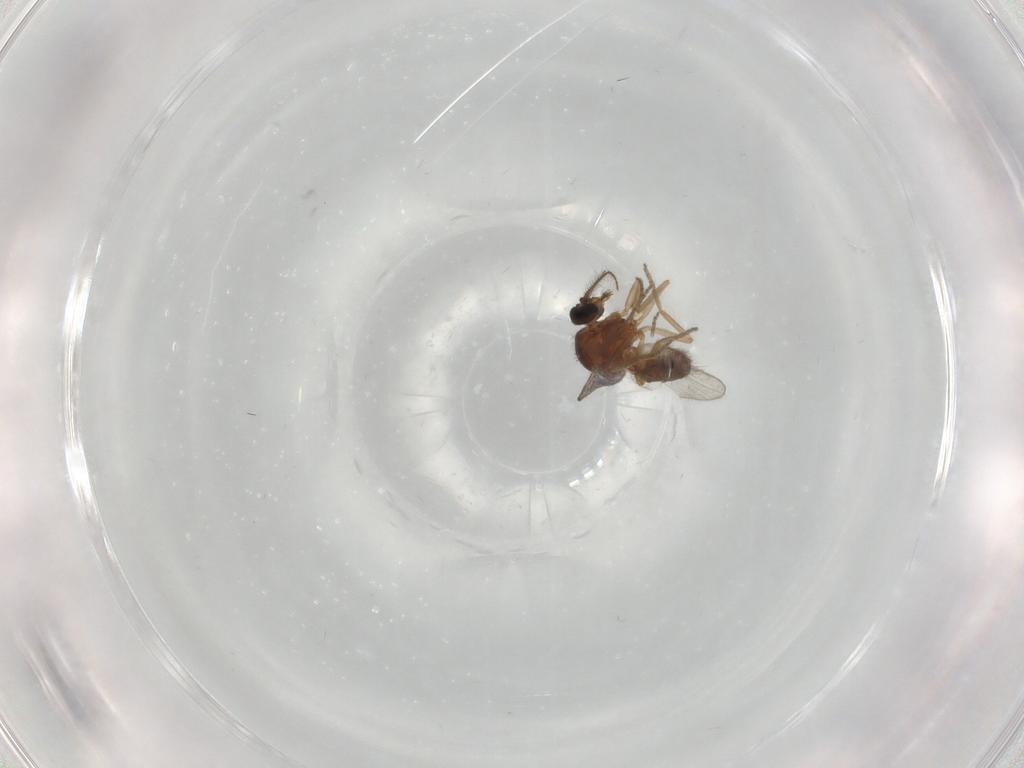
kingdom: Animalia
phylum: Arthropoda
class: Insecta
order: Diptera
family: Ceratopogonidae
